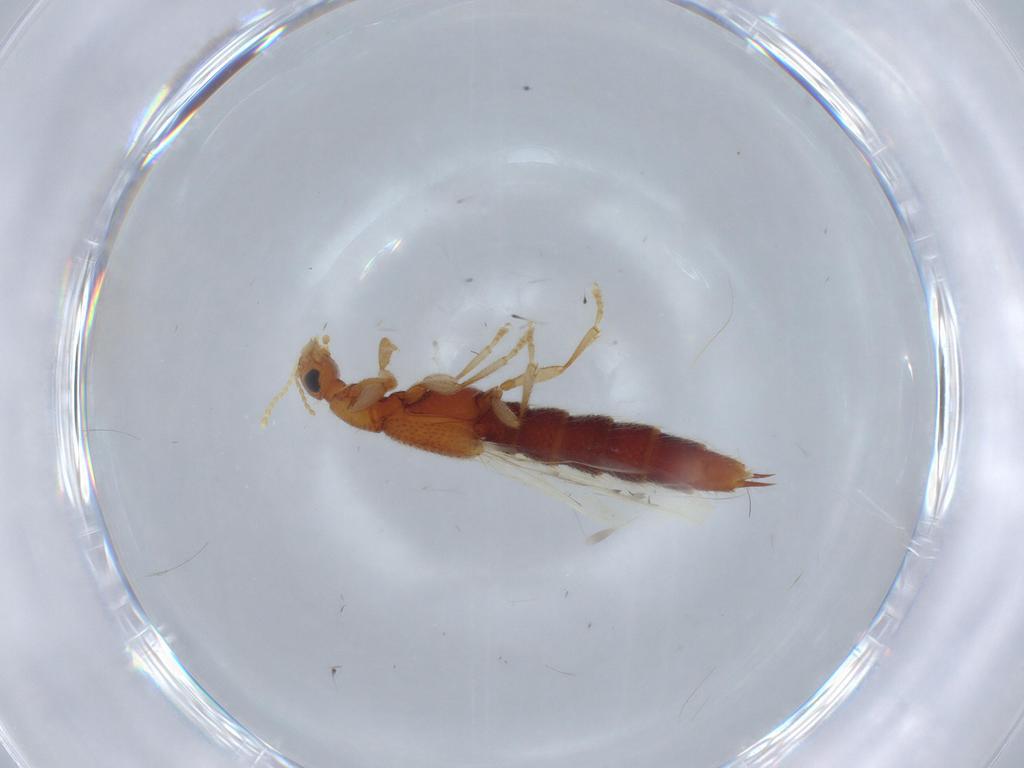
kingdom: Animalia
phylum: Arthropoda
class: Insecta
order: Coleoptera
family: Staphylinidae
